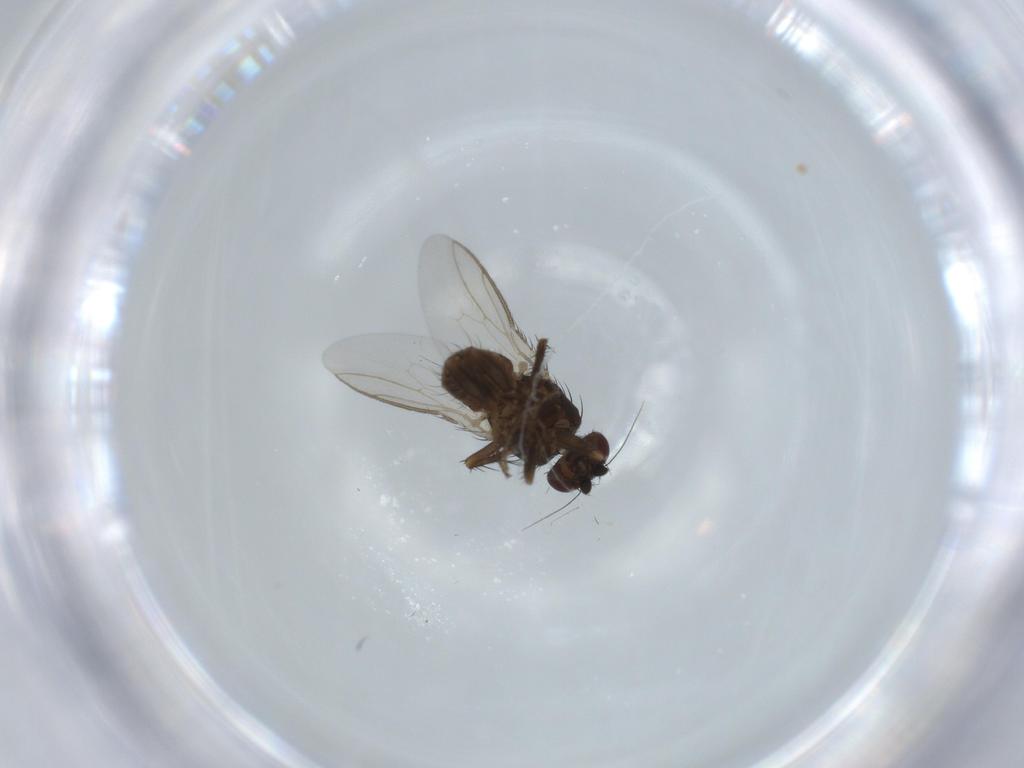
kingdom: Animalia
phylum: Arthropoda
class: Insecta
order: Diptera
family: Sphaeroceridae
